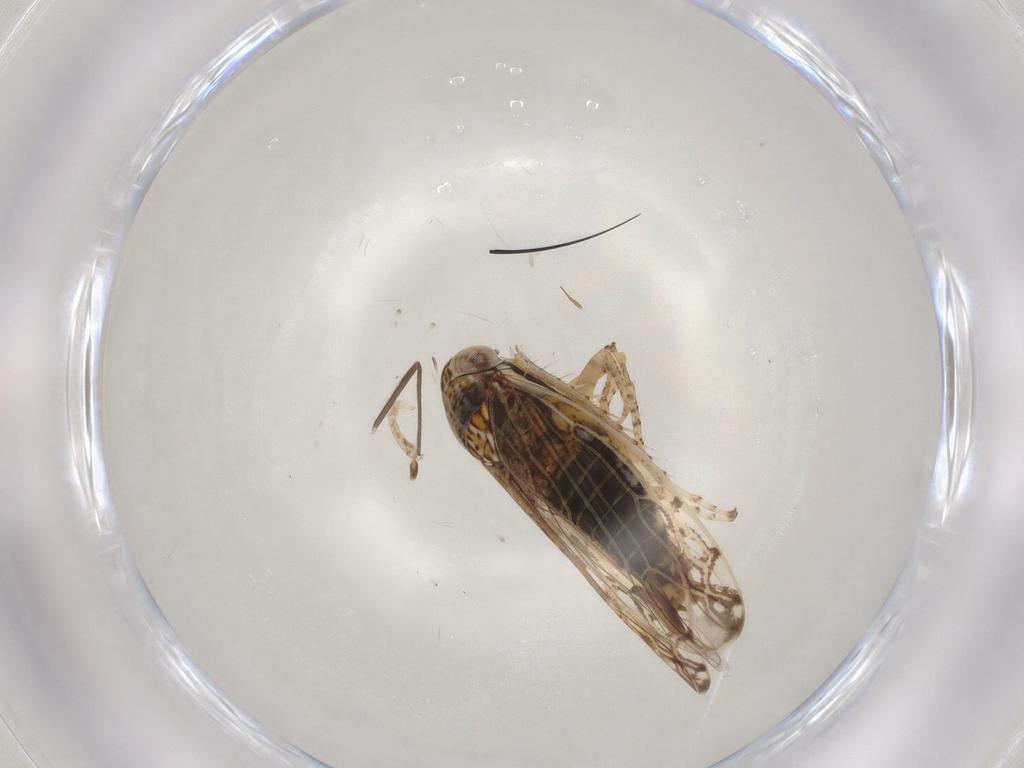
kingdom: Animalia
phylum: Arthropoda
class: Insecta
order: Hemiptera
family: Cicadellidae
